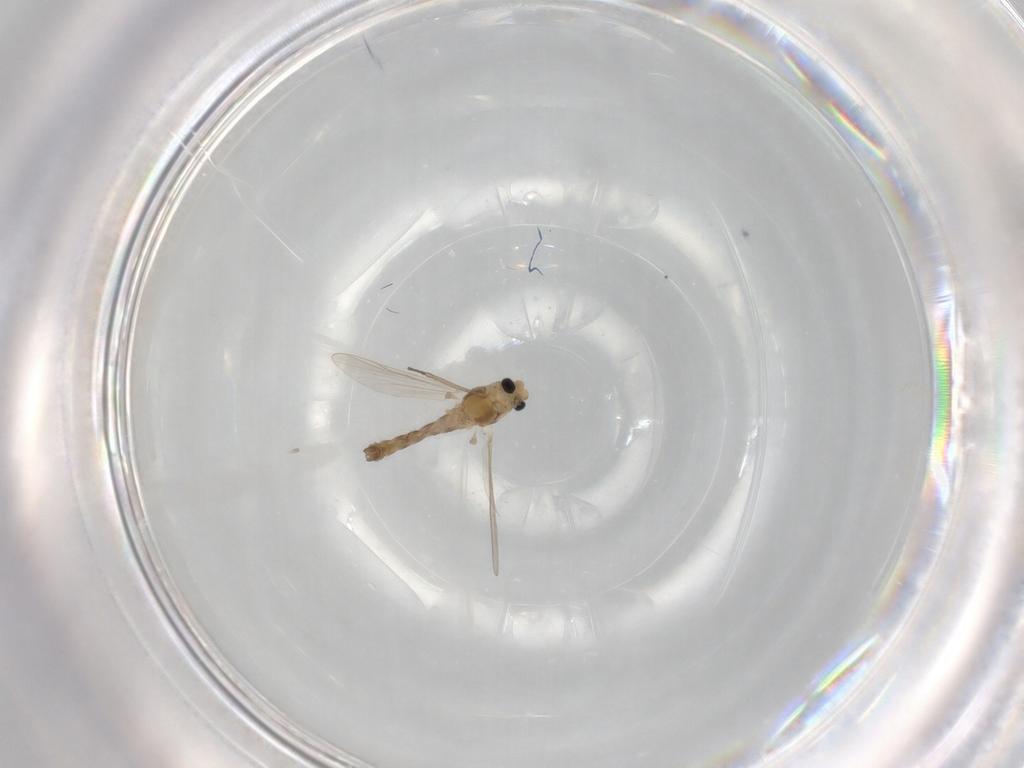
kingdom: Animalia
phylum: Arthropoda
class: Insecta
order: Diptera
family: Chironomidae
